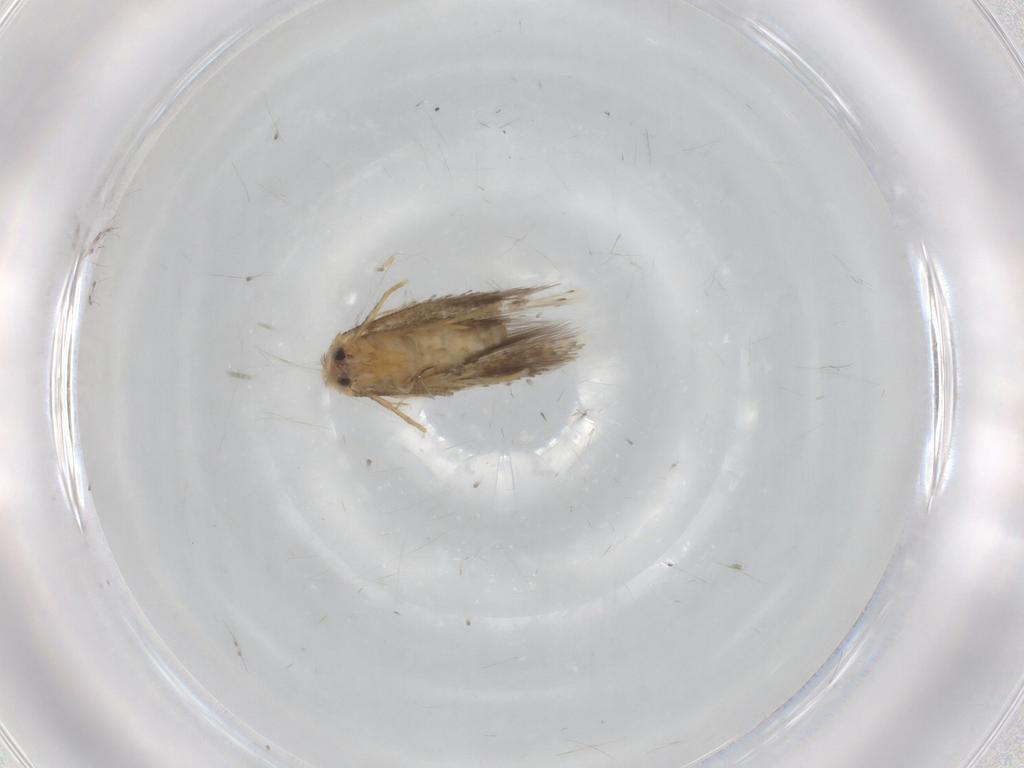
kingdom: Animalia
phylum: Arthropoda
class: Insecta
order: Lepidoptera
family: Nepticulidae
